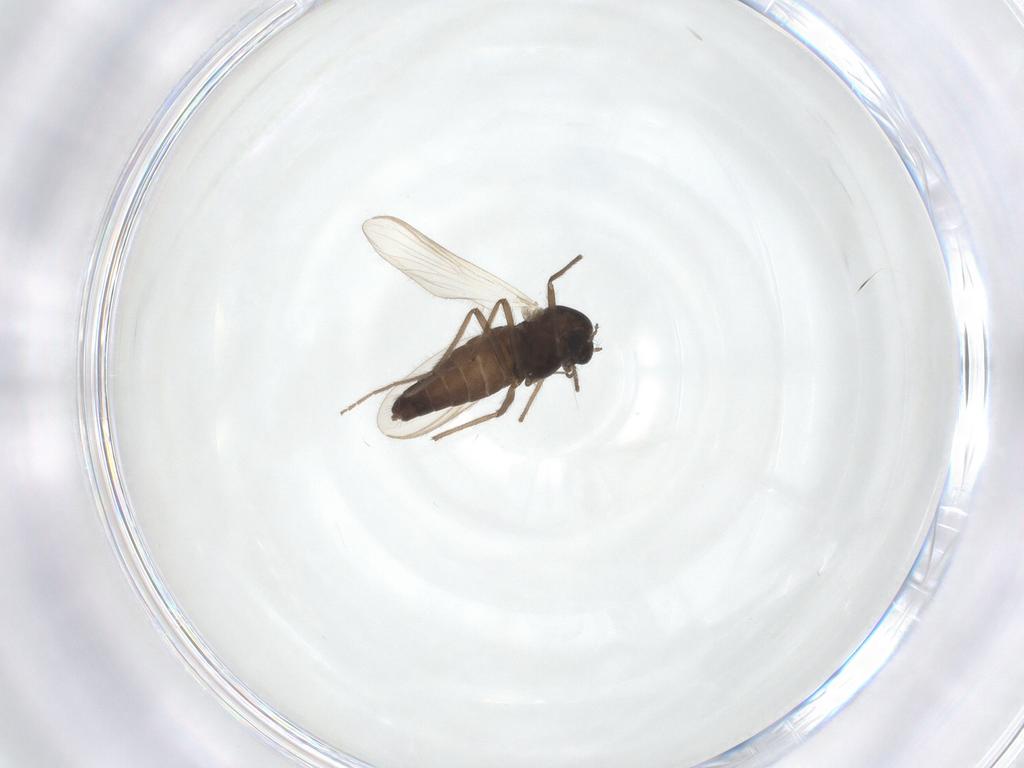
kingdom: Animalia
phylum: Arthropoda
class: Insecta
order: Diptera
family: Chironomidae
